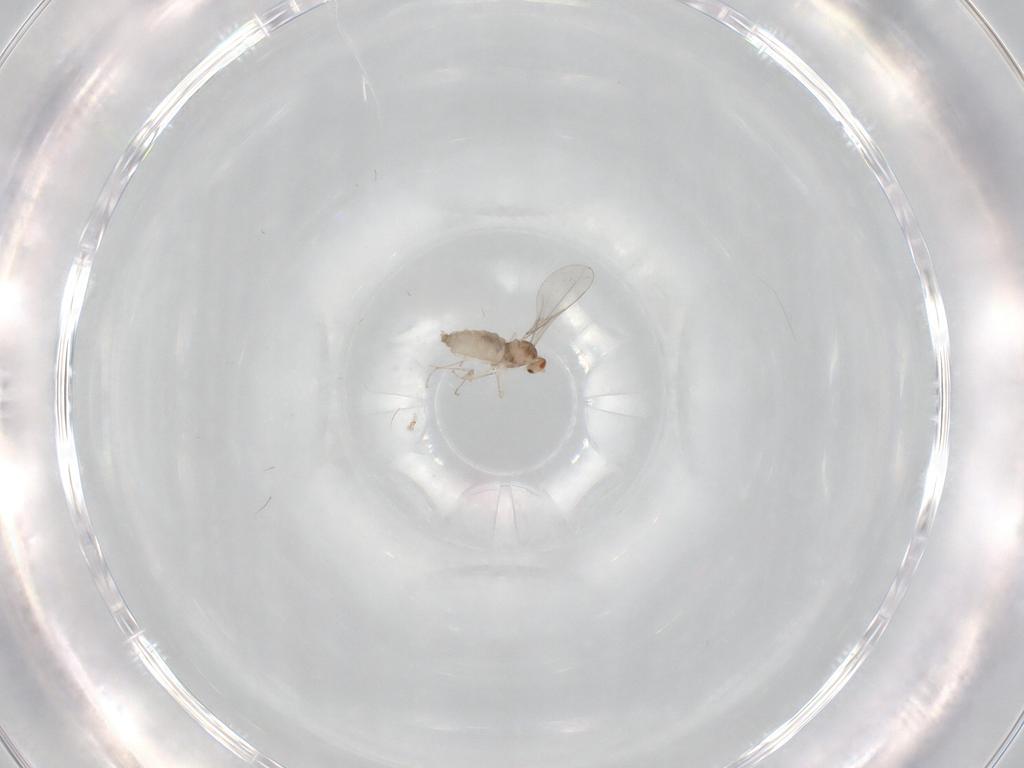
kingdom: Animalia
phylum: Arthropoda
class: Insecta
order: Diptera
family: Cecidomyiidae
